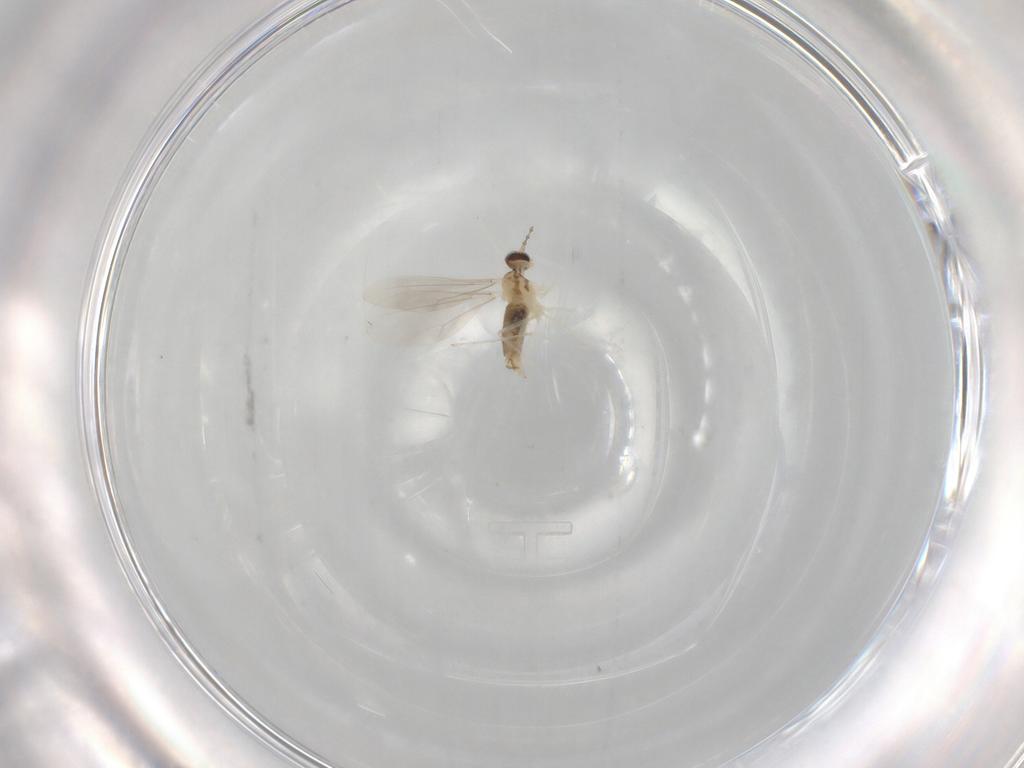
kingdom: Animalia
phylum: Arthropoda
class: Insecta
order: Diptera
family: Cecidomyiidae
